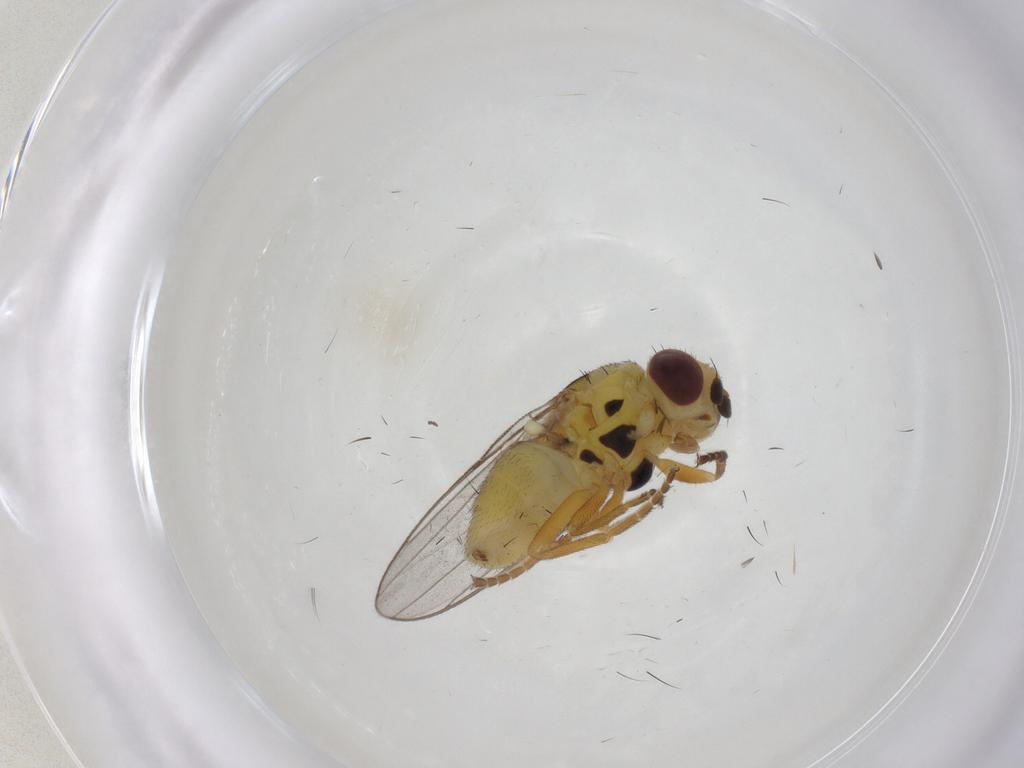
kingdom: Animalia
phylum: Arthropoda
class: Insecta
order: Diptera
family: Chloropidae
